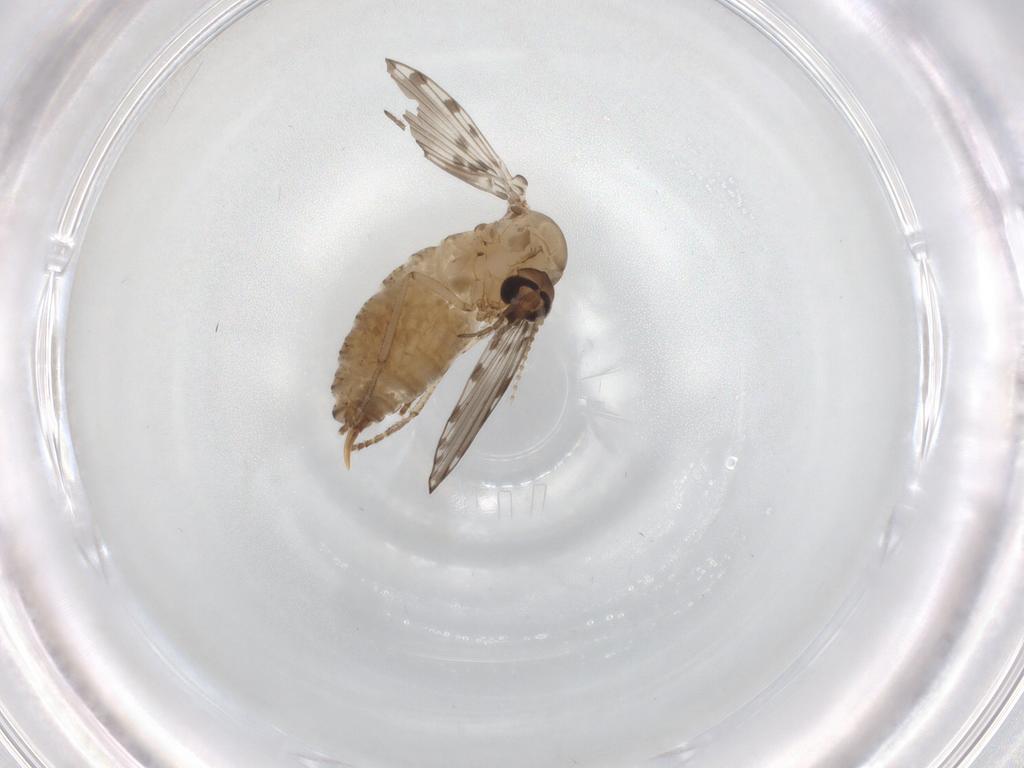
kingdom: Animalia
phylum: Arthropoda
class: Insecta
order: Diptera
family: Psychodidae
